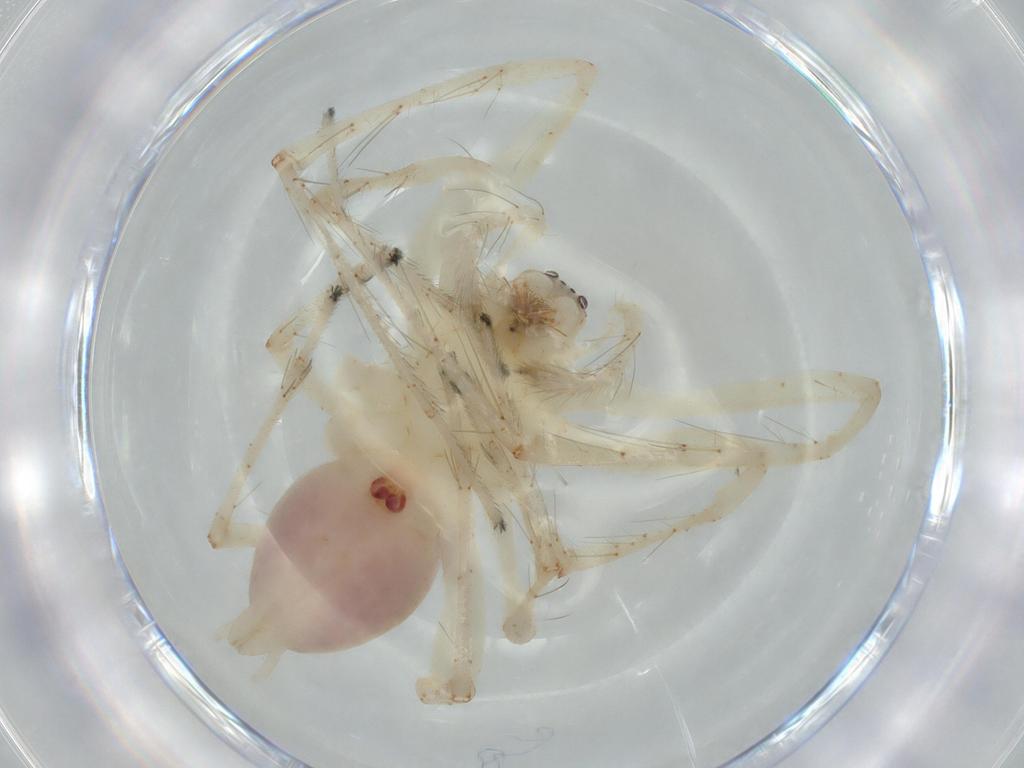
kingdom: Animalia
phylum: Arthropoda
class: Arachnida
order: Araneae
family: Anyphaenidae
